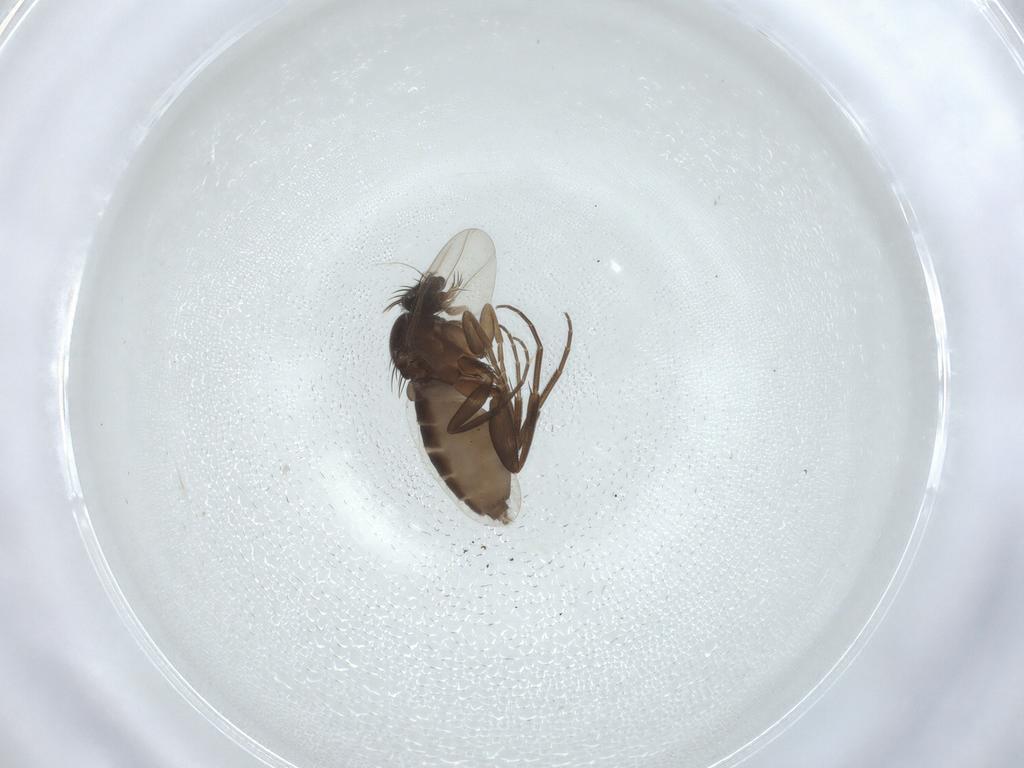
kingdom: Animalia
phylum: Arthropoda
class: Insecta
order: Diptera
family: Phoridae
